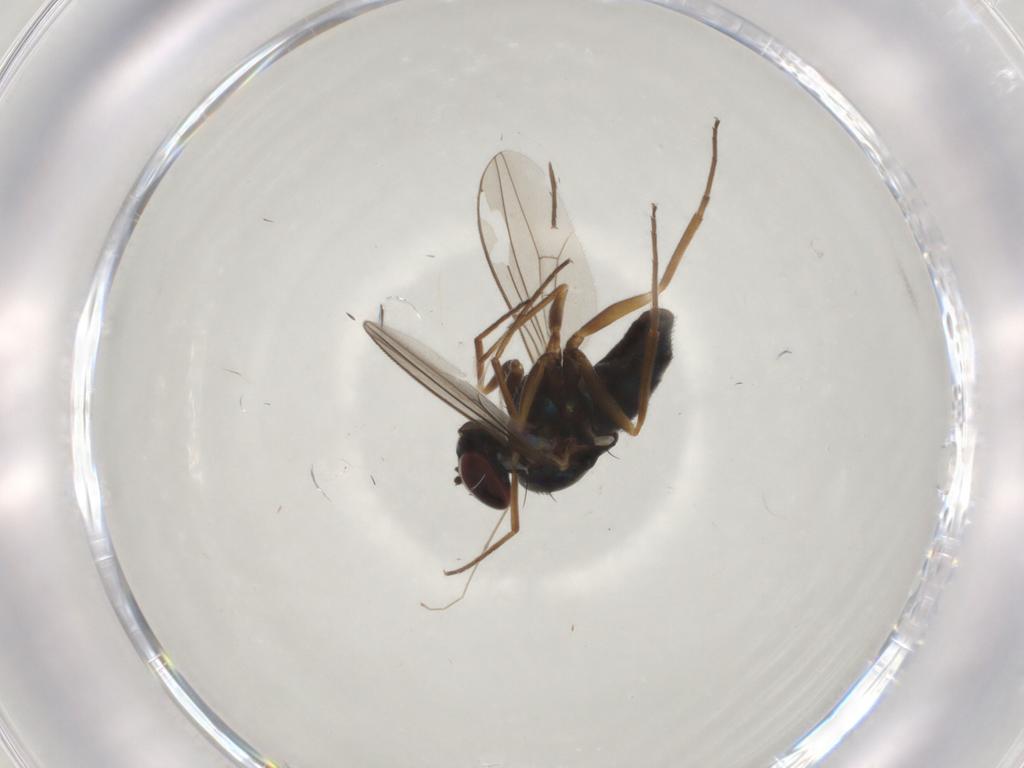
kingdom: Animalia
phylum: Arthropoda
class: Insecta
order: Diptera
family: Dolichopodidae
